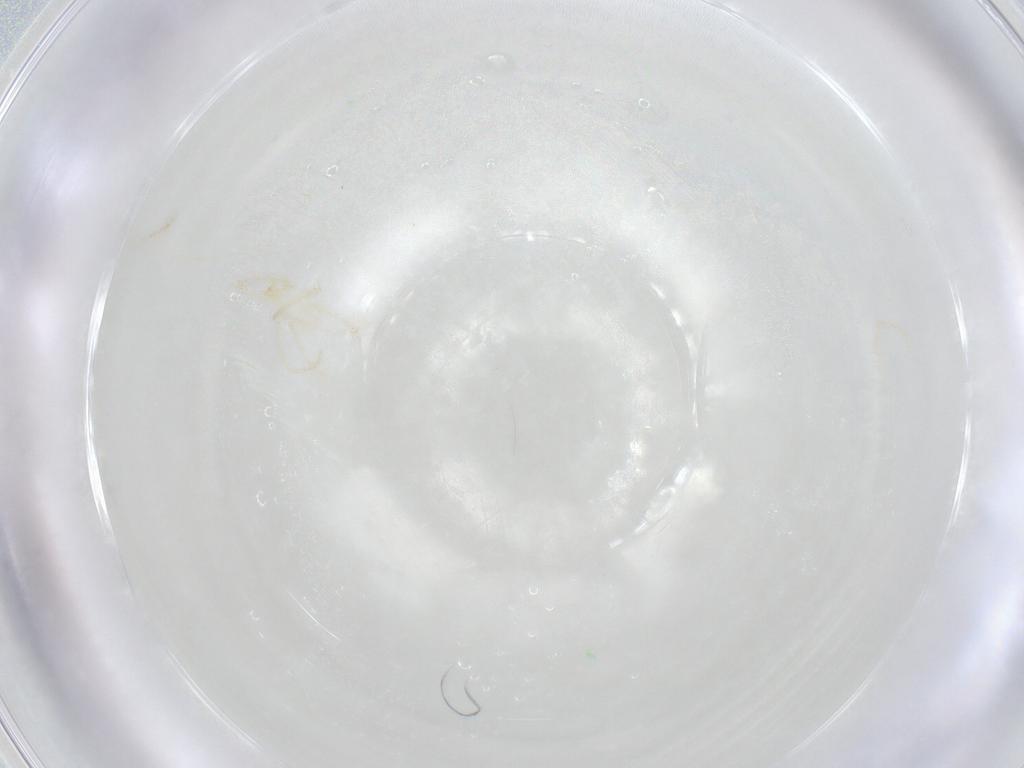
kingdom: Animalia
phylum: Arthropoda
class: Arachnida
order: Trombidiformes
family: Erythraeidae
